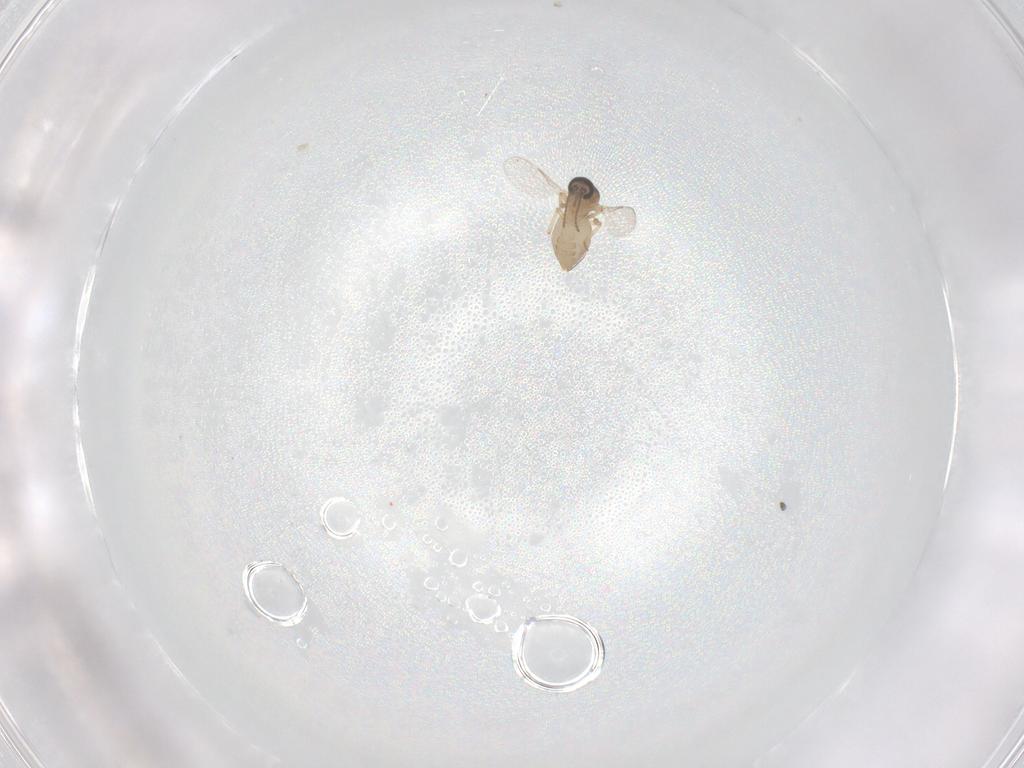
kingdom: Animalia
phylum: Arthropoda
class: Insecta
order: Diptera
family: Ceratopogonidae
